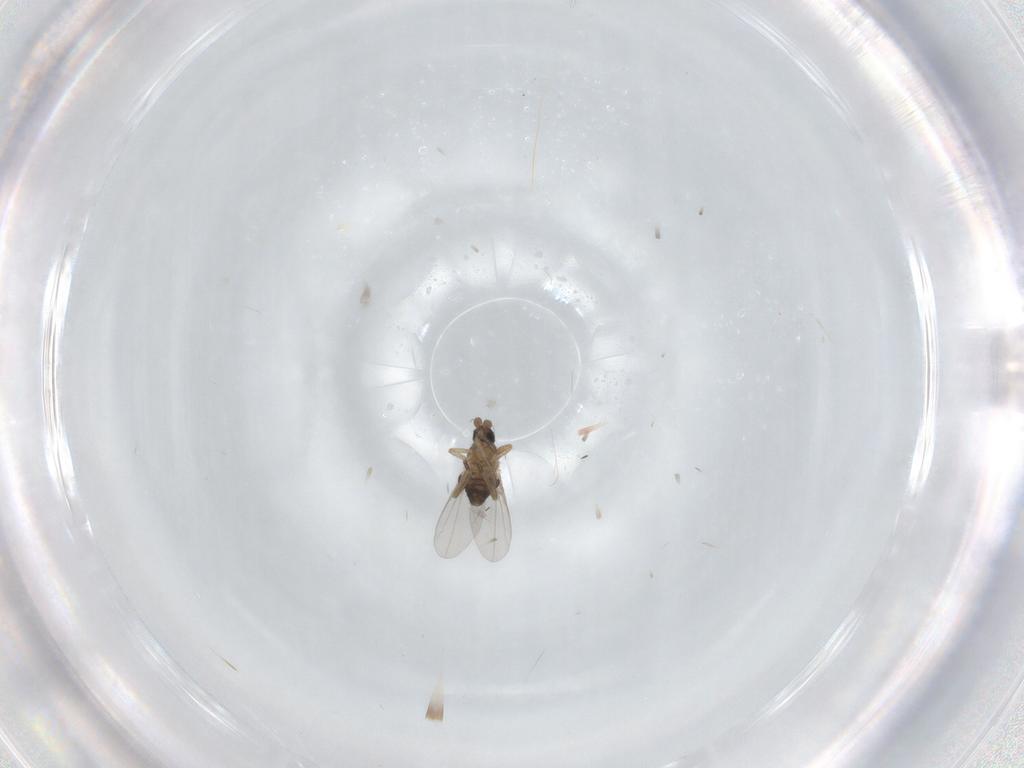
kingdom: Animalia
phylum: Arthropoda
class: Insecta
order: Diptera
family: Phoridae
